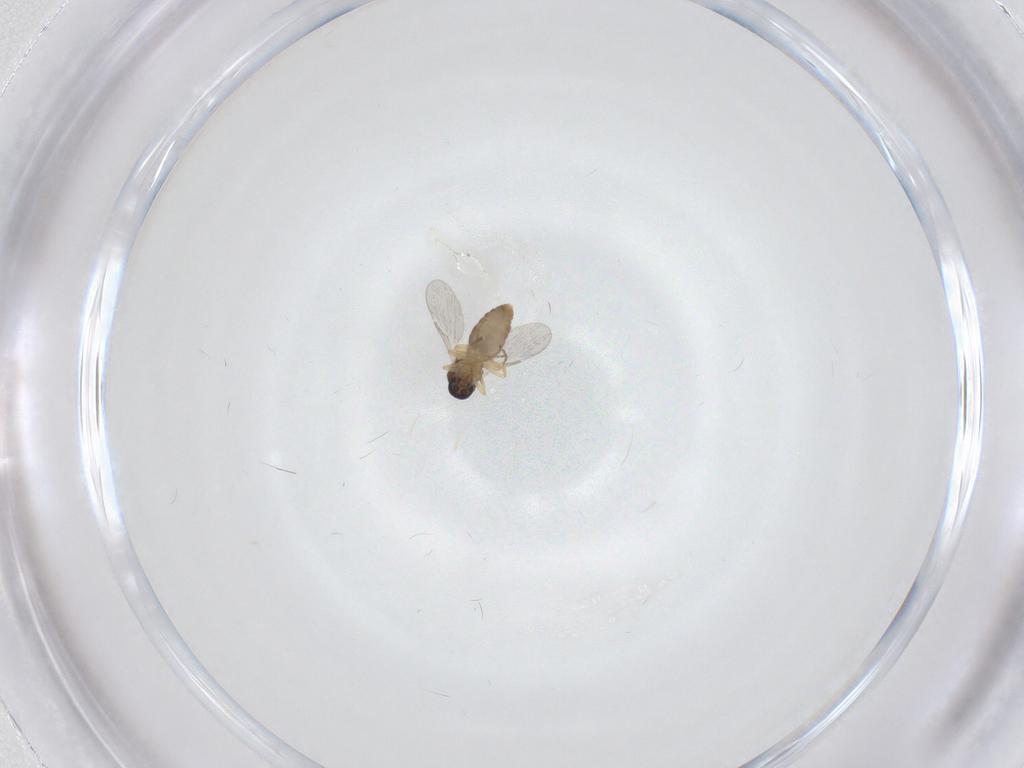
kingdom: Animalia
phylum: Arthropoda
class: Insecta
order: Diptera
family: Ceratopogonidae
